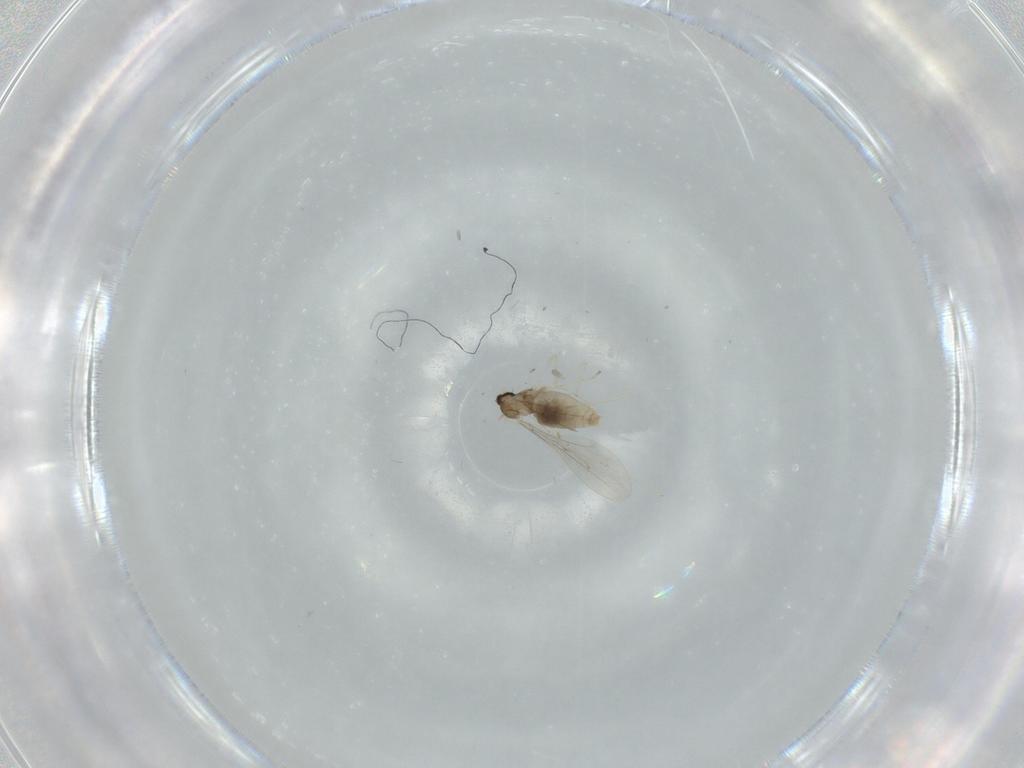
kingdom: Animalia
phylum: Arthropoda
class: Insecta
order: Diptera
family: Cecidomyiidae
